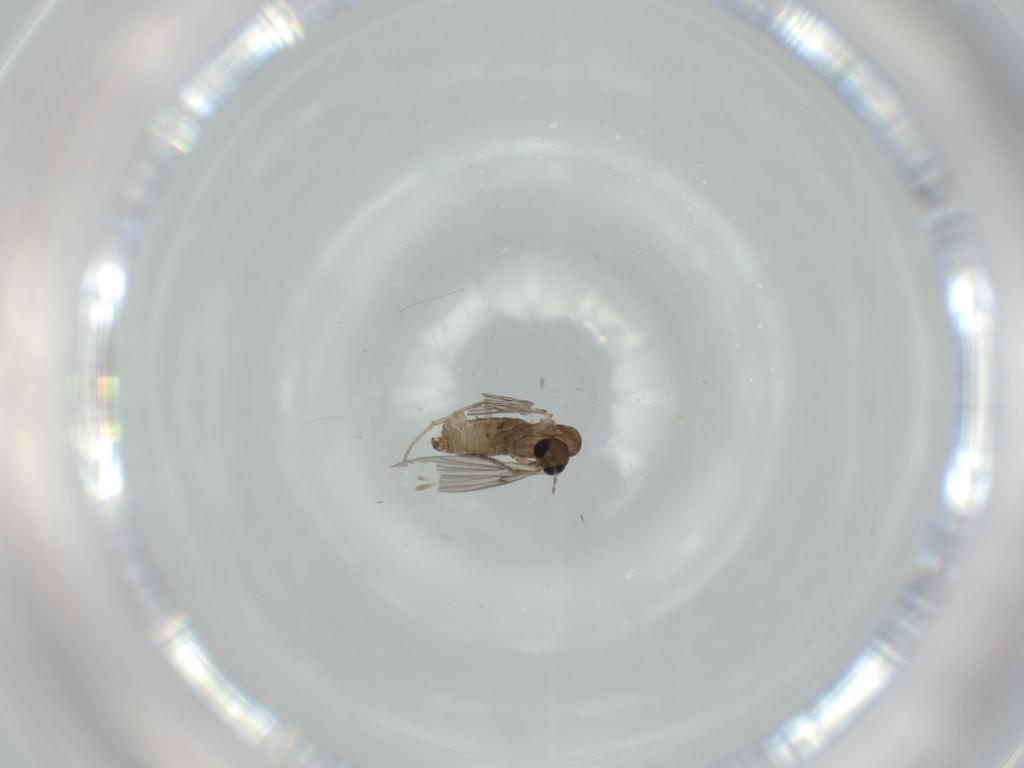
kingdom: Animalia
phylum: Arthropoda
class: Insecta
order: Diptera
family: Psychodidae
